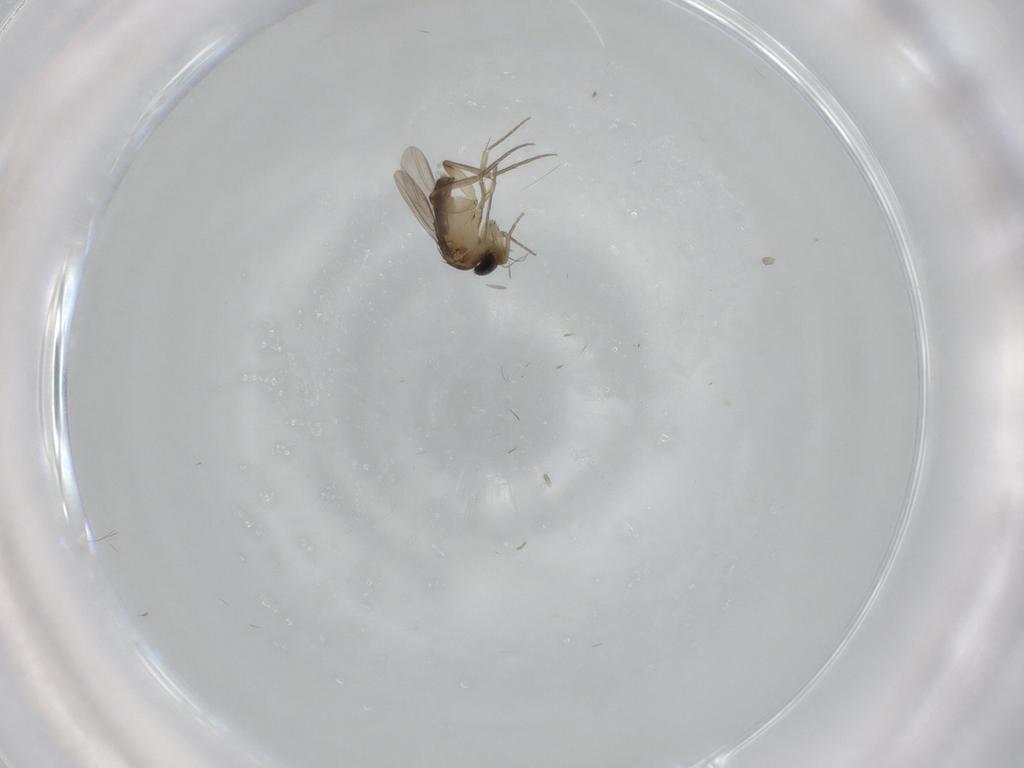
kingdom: Animalia
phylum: Arthropoda
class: Insecta
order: Diptera
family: Phoridae
